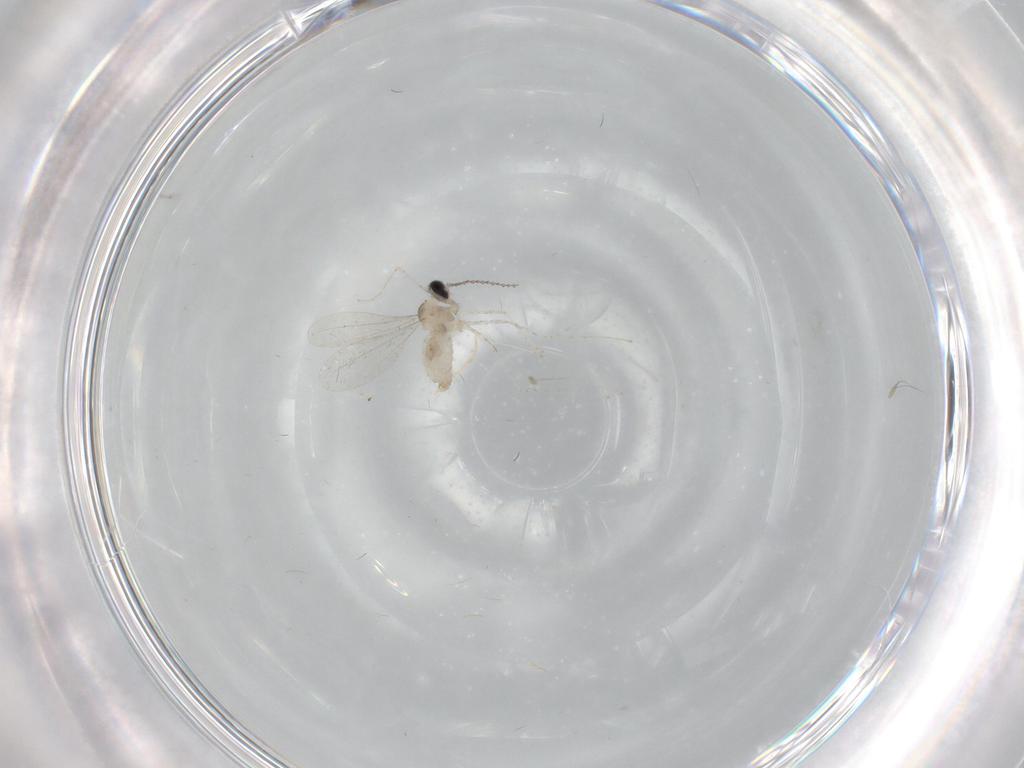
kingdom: Animalia
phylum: Arthropoda
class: Insecta
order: Diptera
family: Cecidomyiidae
